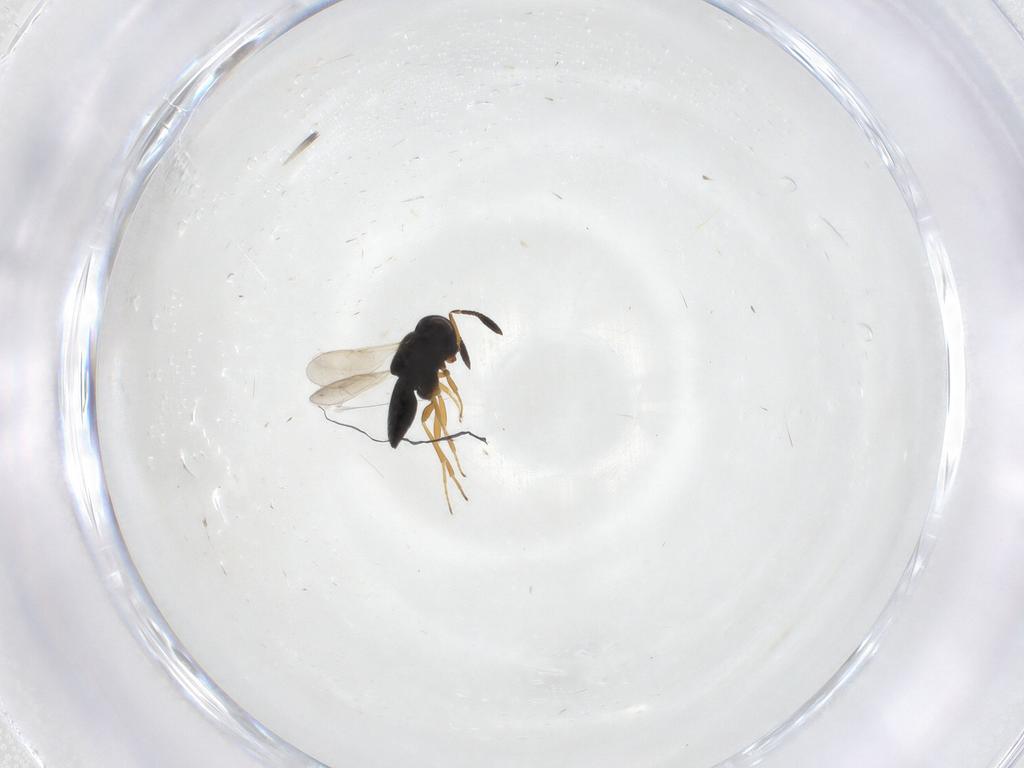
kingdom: Animalia
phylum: Arthropoda
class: Insecta
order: Hymenoptera
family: Scelionidae
